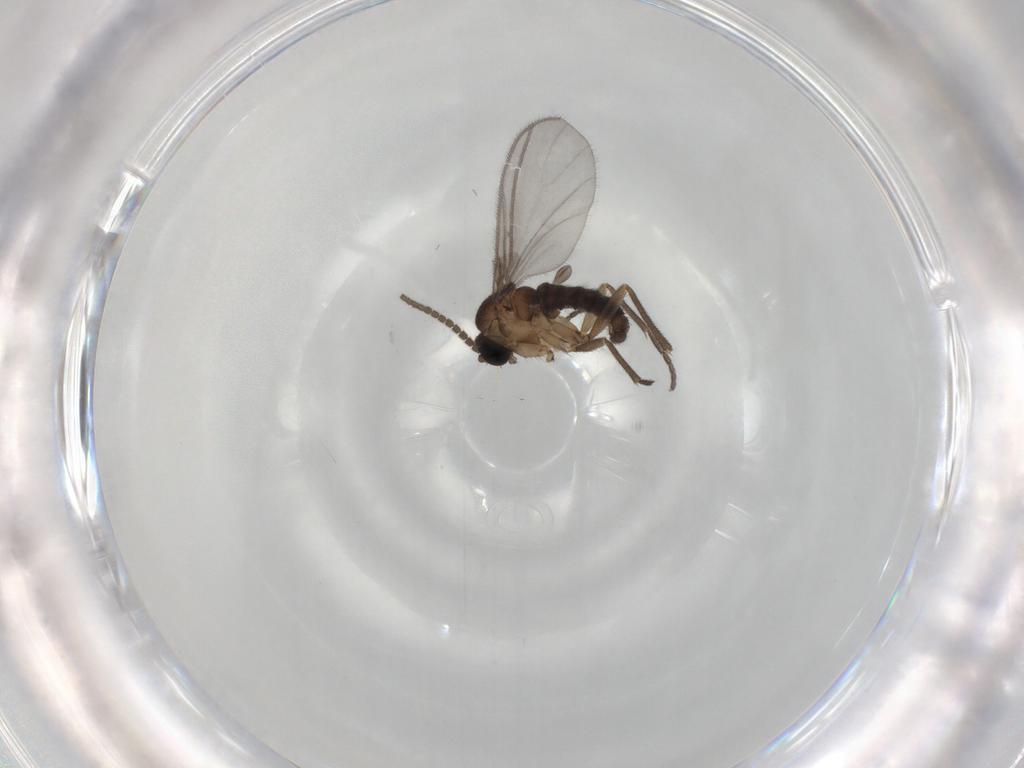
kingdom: Animalia
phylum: Arthropoda
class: Insecta
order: Diptera
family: Sciaridae
